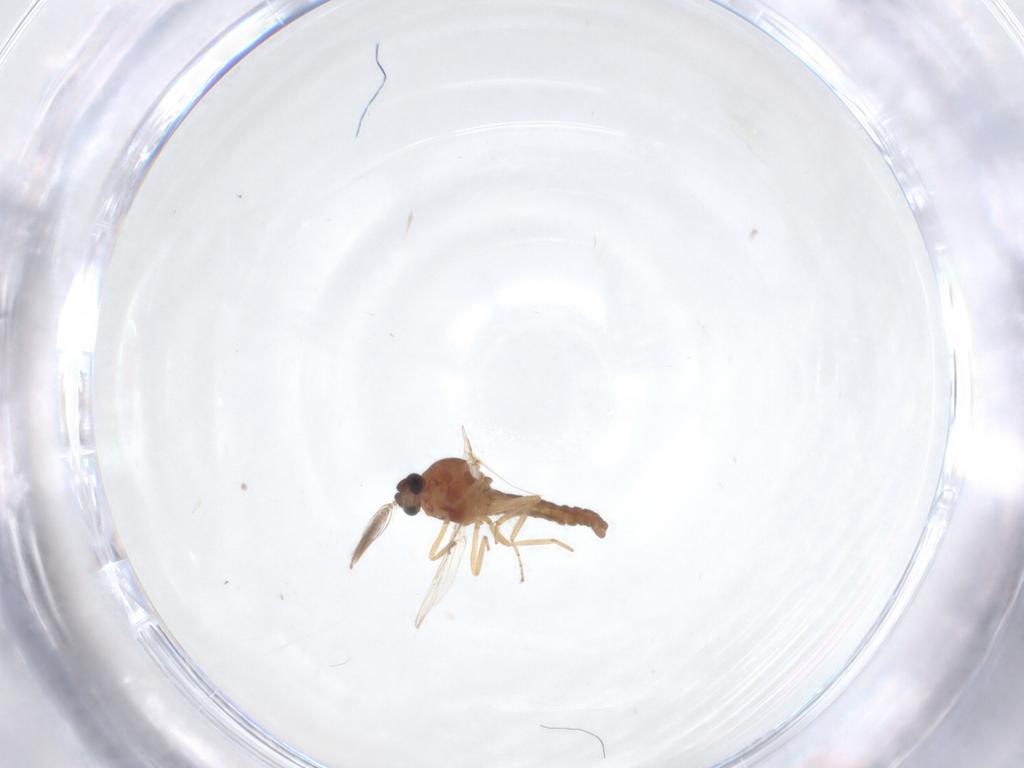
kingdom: Animalia
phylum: Arthropoda
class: Insecta
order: Diptera
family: Ceratopogonidae
